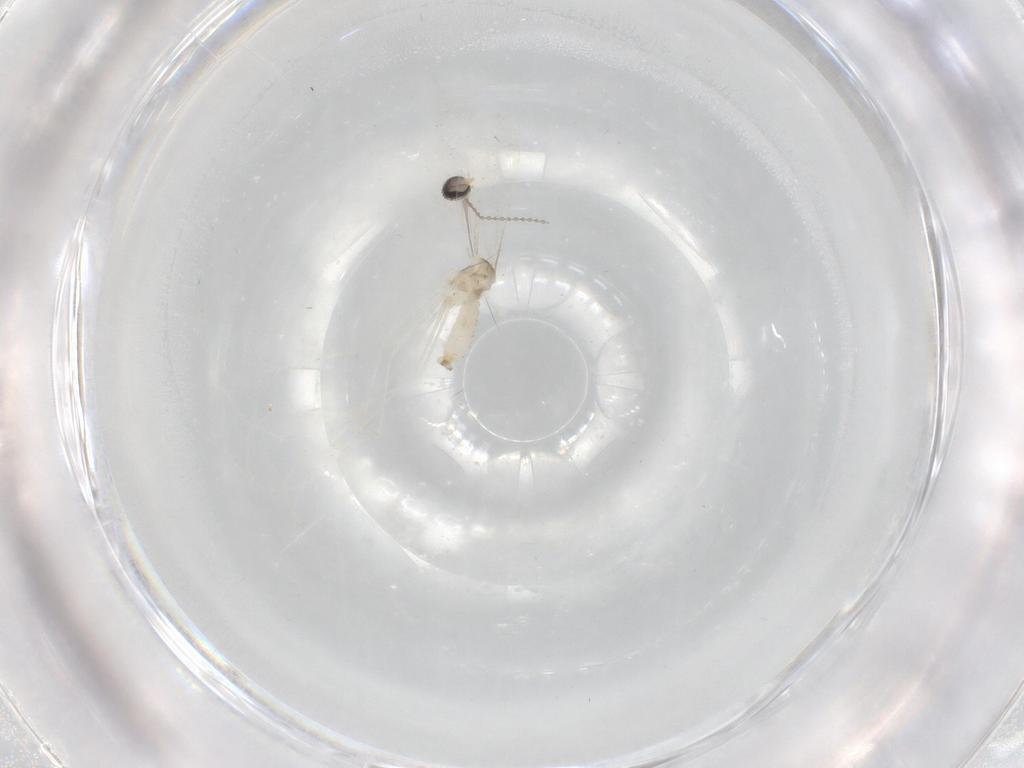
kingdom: Animalia
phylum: Arthropoda
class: Insecta
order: Diptera
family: Cecidomyiidae
